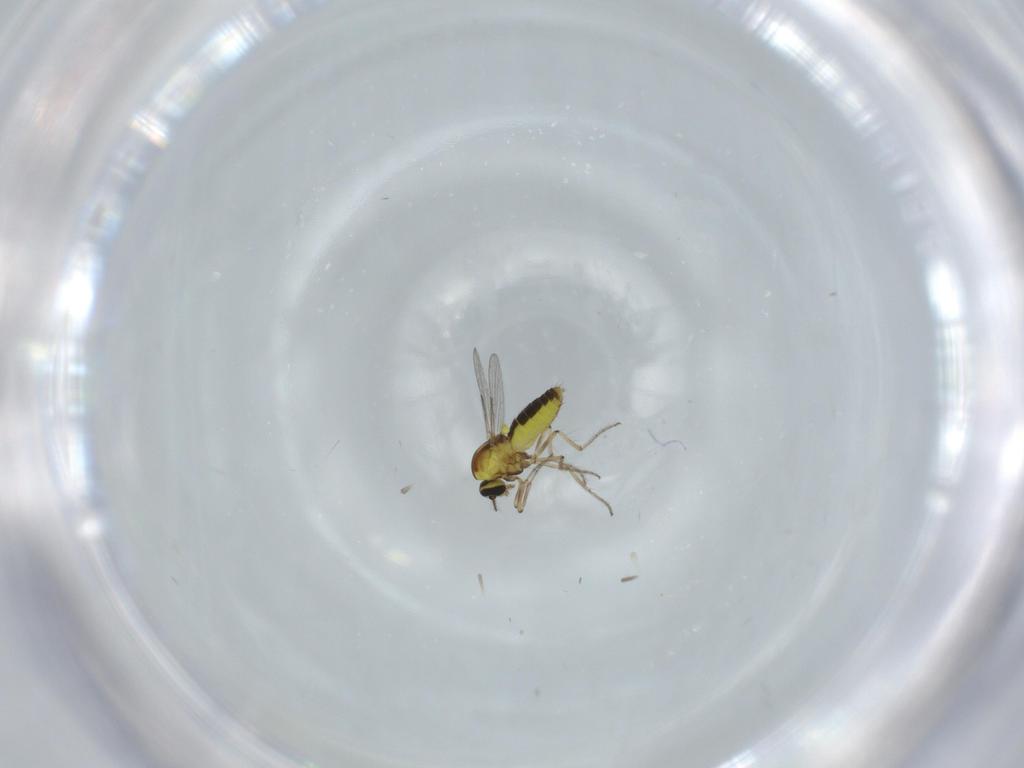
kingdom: Animalia
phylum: Arthropoda
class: Insecta
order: Diptera
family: Ceratopogonidae
